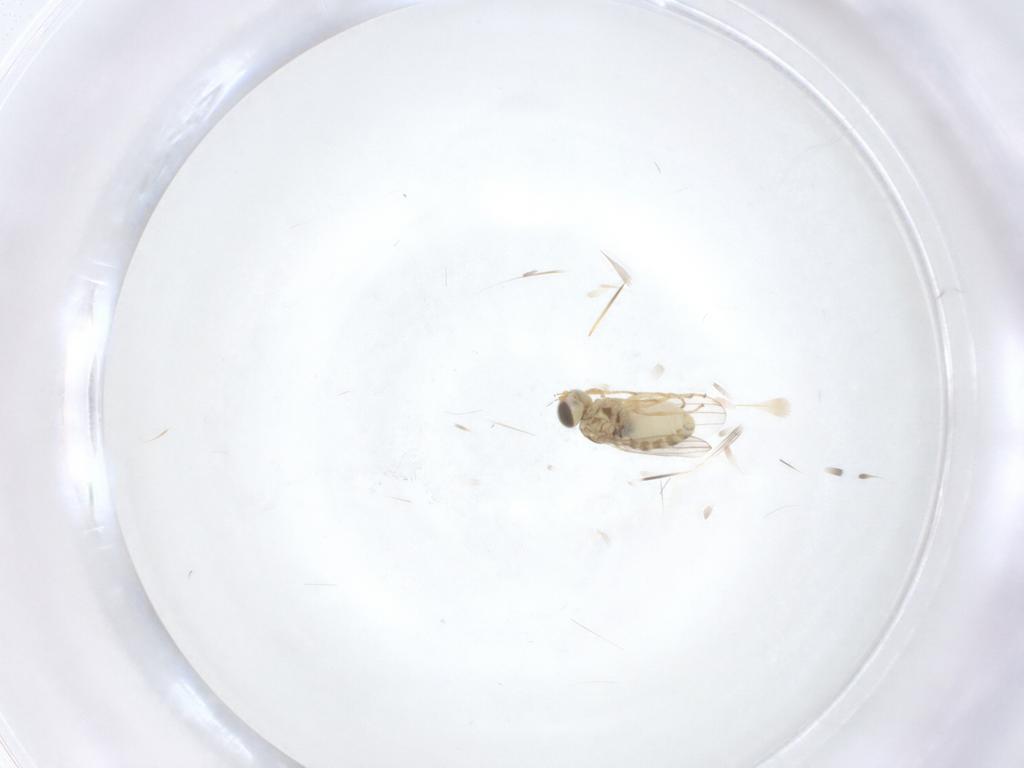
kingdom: Animalia
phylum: Arthropoda
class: Insecta
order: Diptera
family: Chyromyidae
